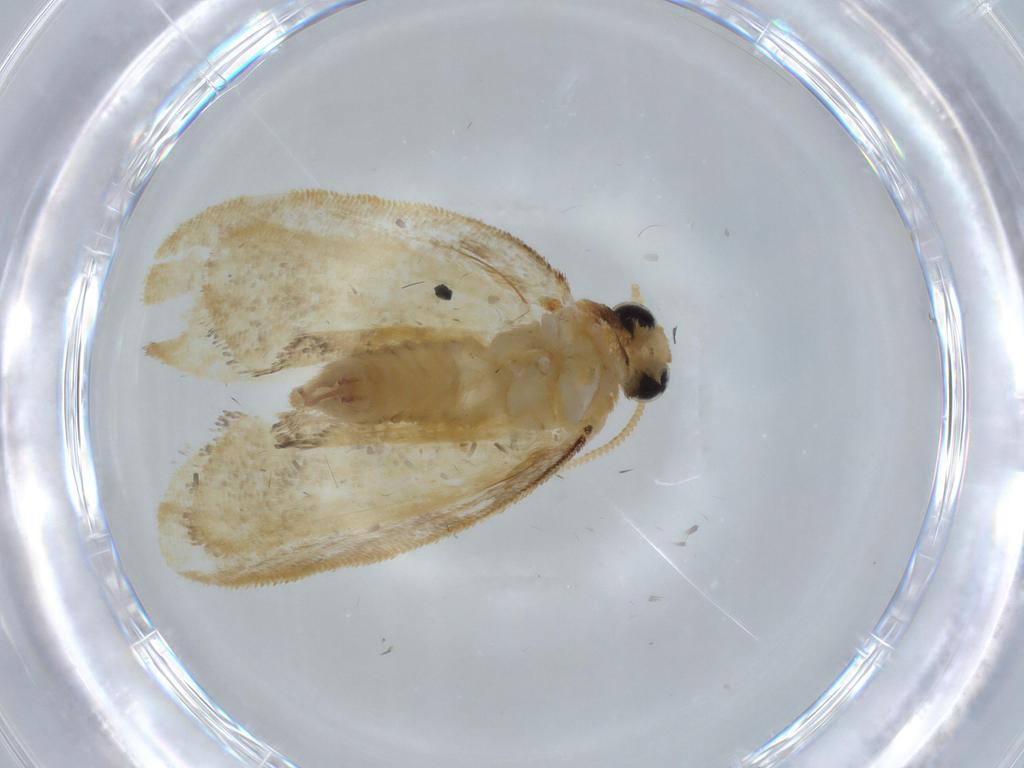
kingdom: Animalia
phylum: Arthropoda
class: Insecta
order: Lepidoptera
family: Psychidae
